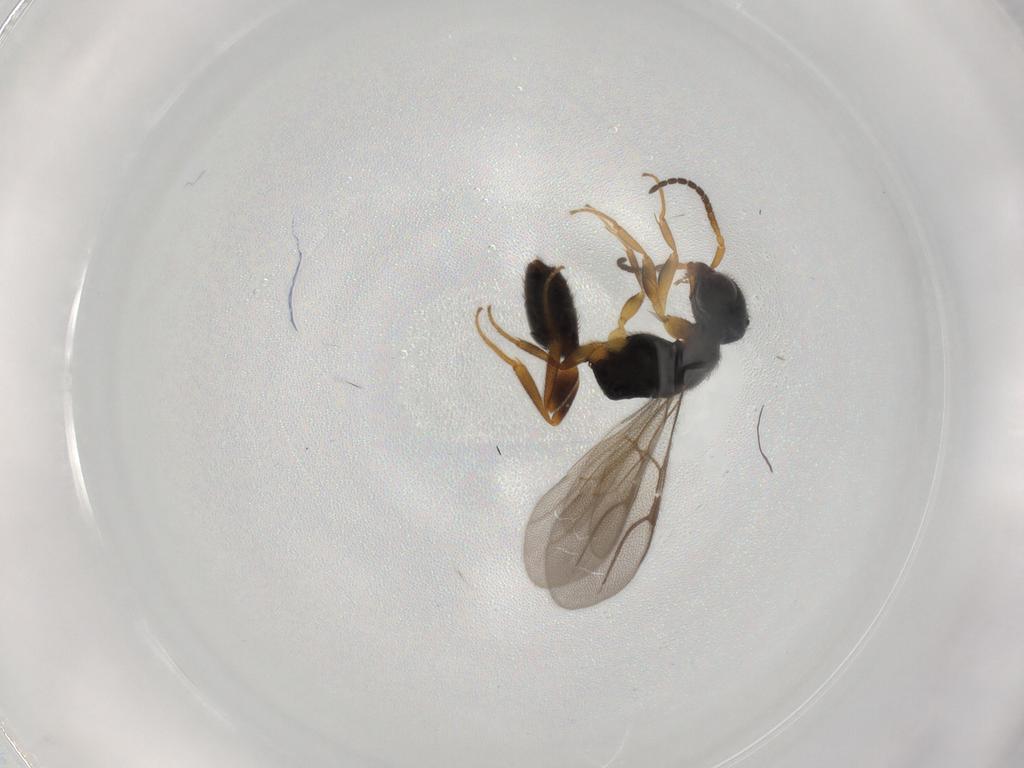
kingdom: Animalia
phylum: Arthropoda
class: Insecta
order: Hymenoptera
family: Bethylidae
